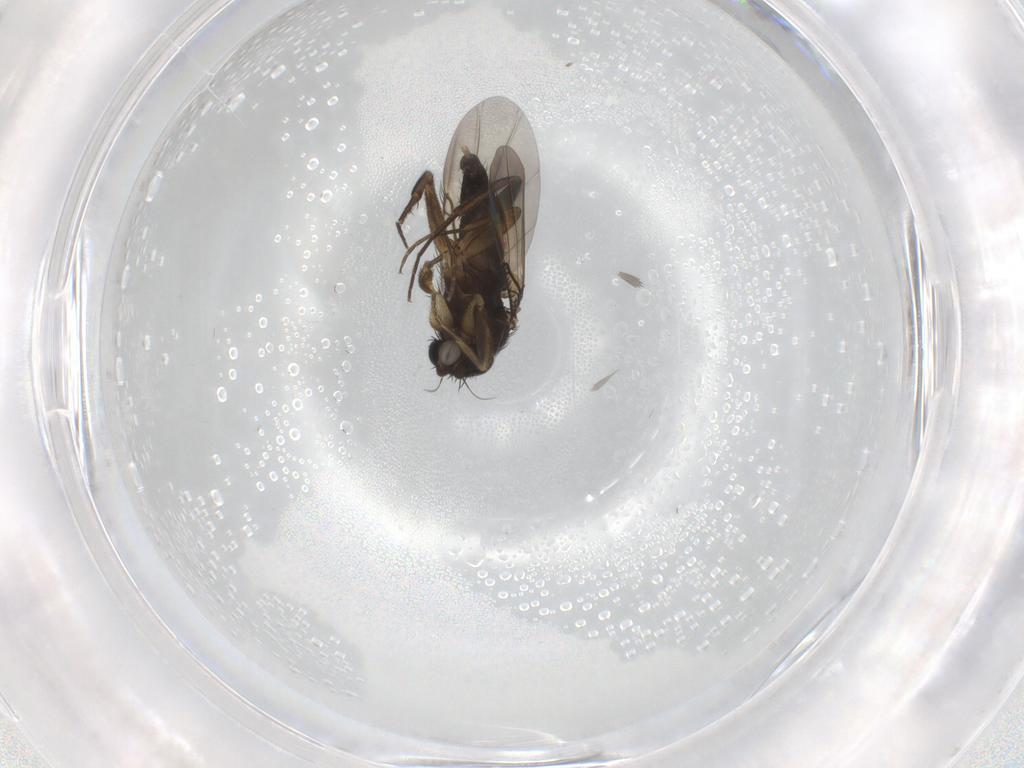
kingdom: Animalia
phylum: Arthropoda
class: Insecta
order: Diptera
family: Phoridae
